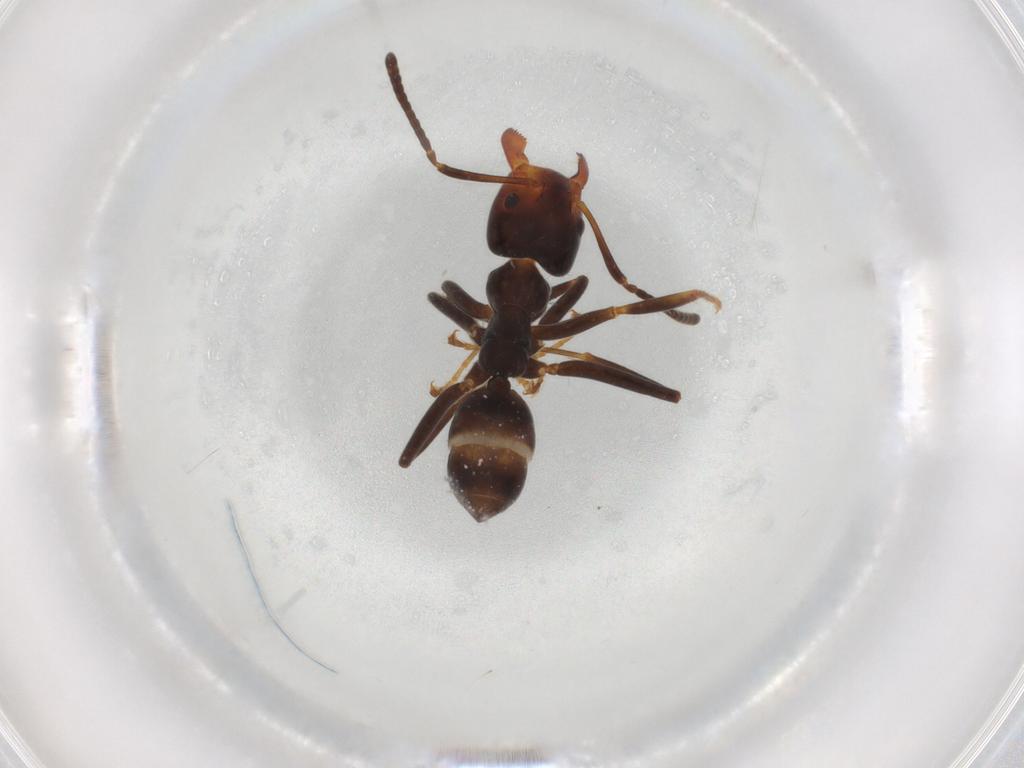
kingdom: Animalia
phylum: Arthropoda
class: Insecta
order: Hymenoptera
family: Formicidae
